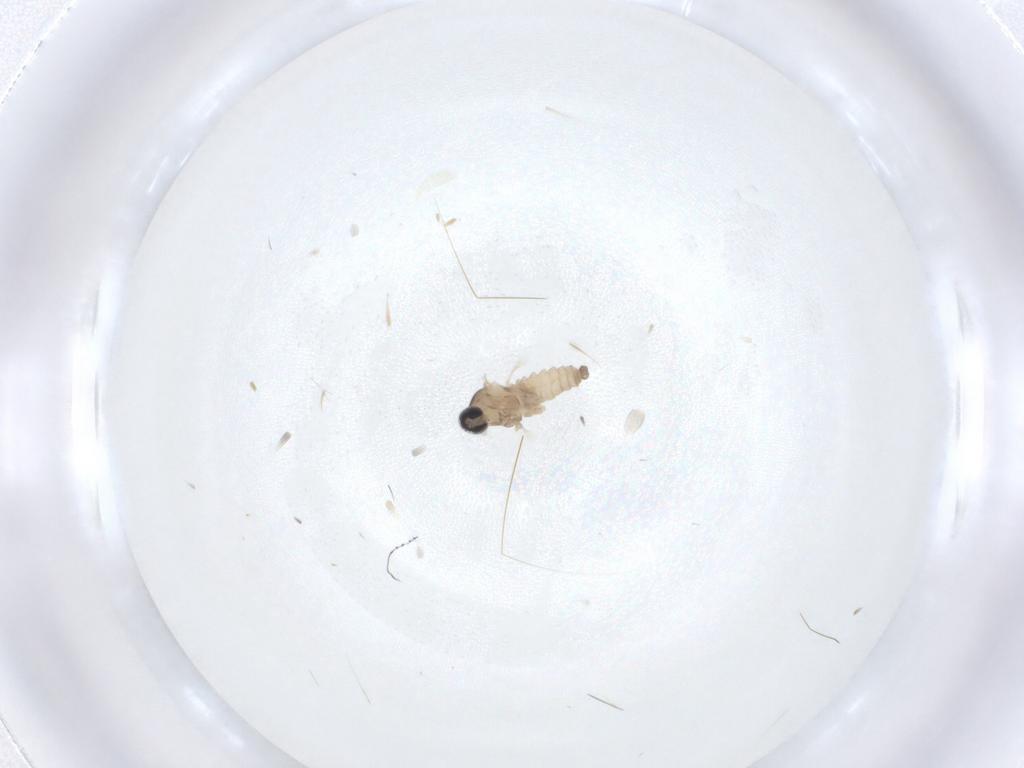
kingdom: Animalia
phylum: Arthropoda
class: Insecta
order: Diptera
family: Cecidomyiidae
